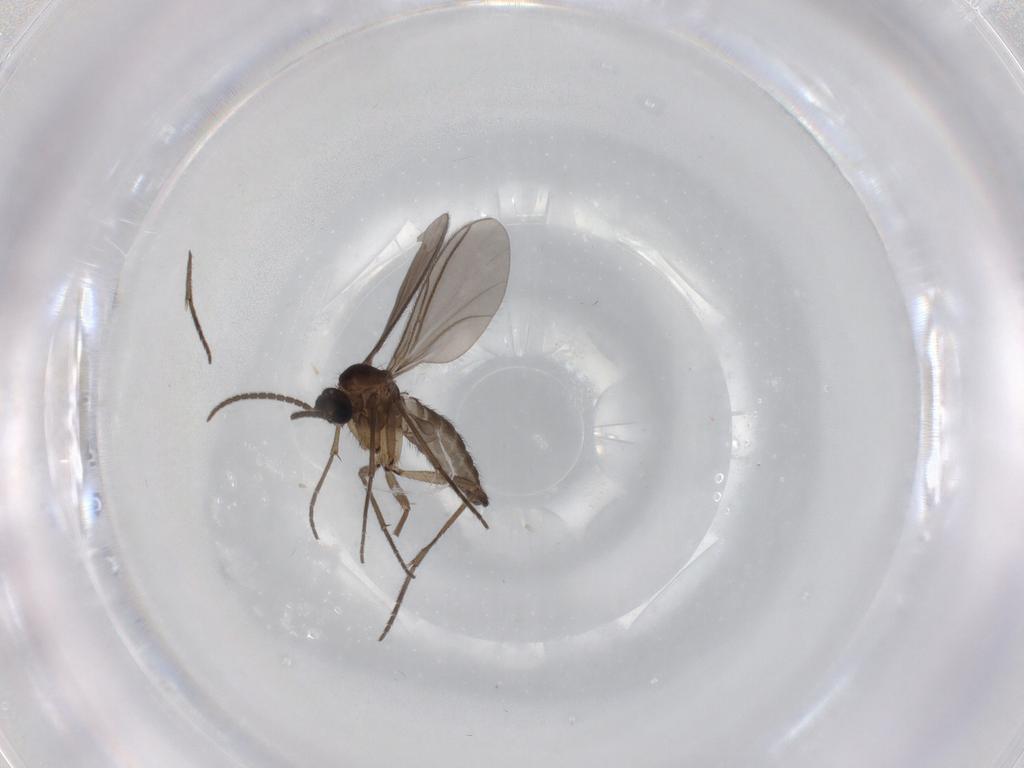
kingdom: Animalia
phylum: Arthropoda
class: Insecta
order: Diptera
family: Sciaridae
